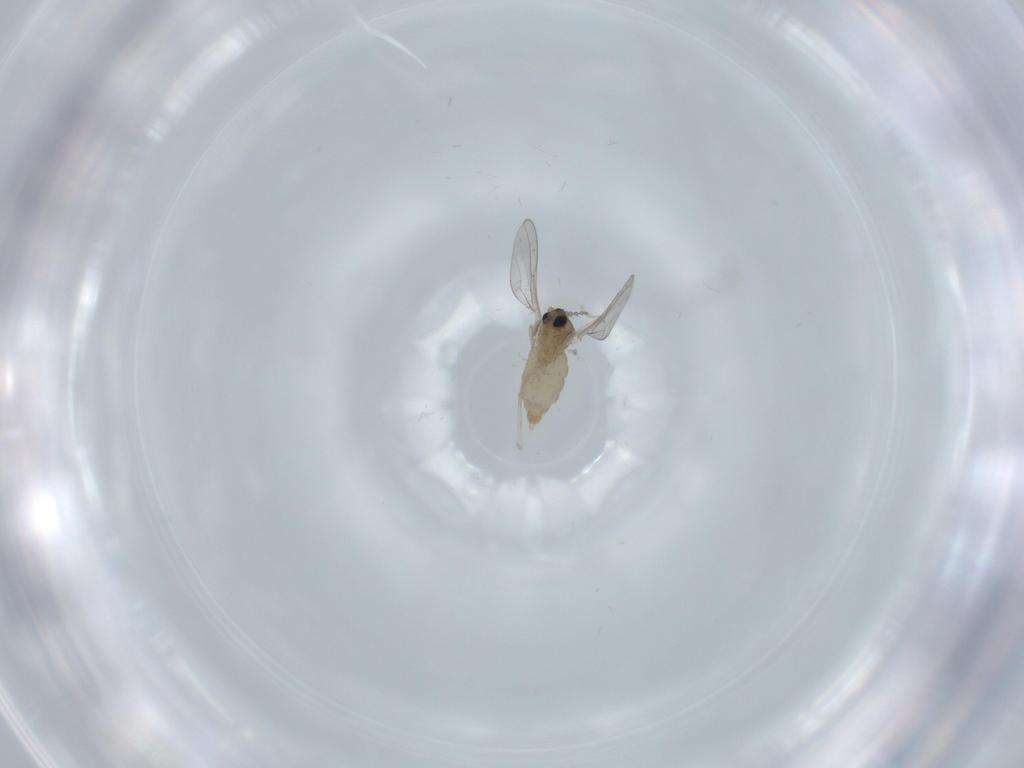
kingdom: Animalia
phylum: Arthropoda
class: Insecta
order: Diptera
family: Cecidomyiidae
